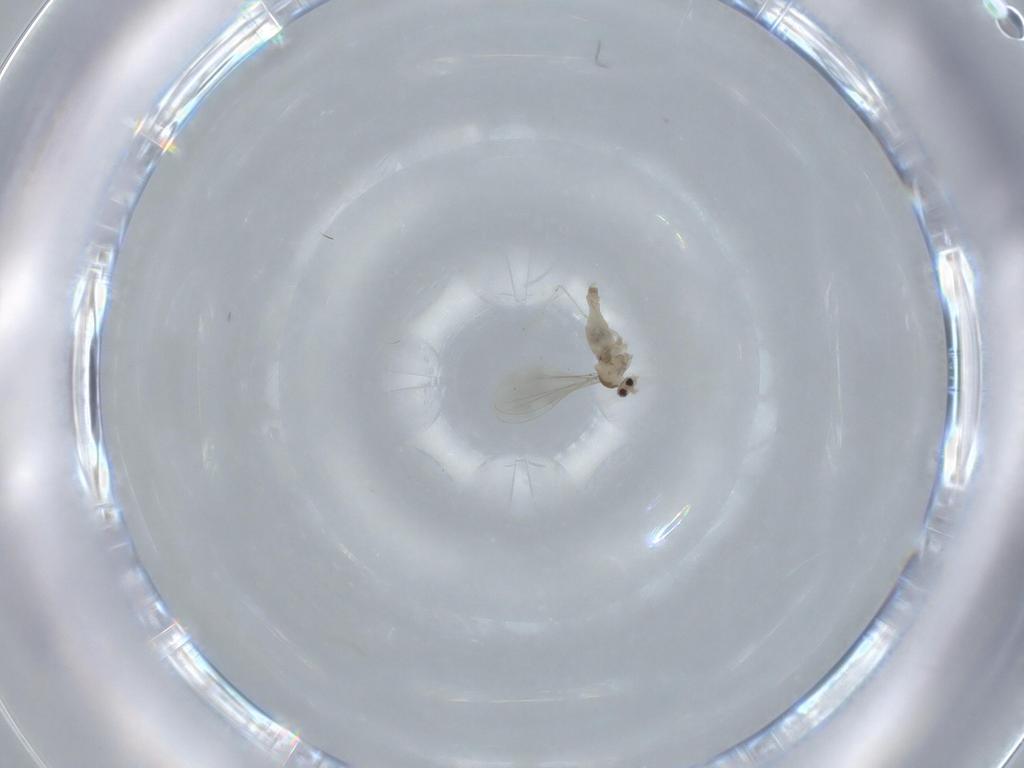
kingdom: Animalia
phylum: Arthropoda
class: Insecta
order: Diptera
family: Cecidomyiidae
